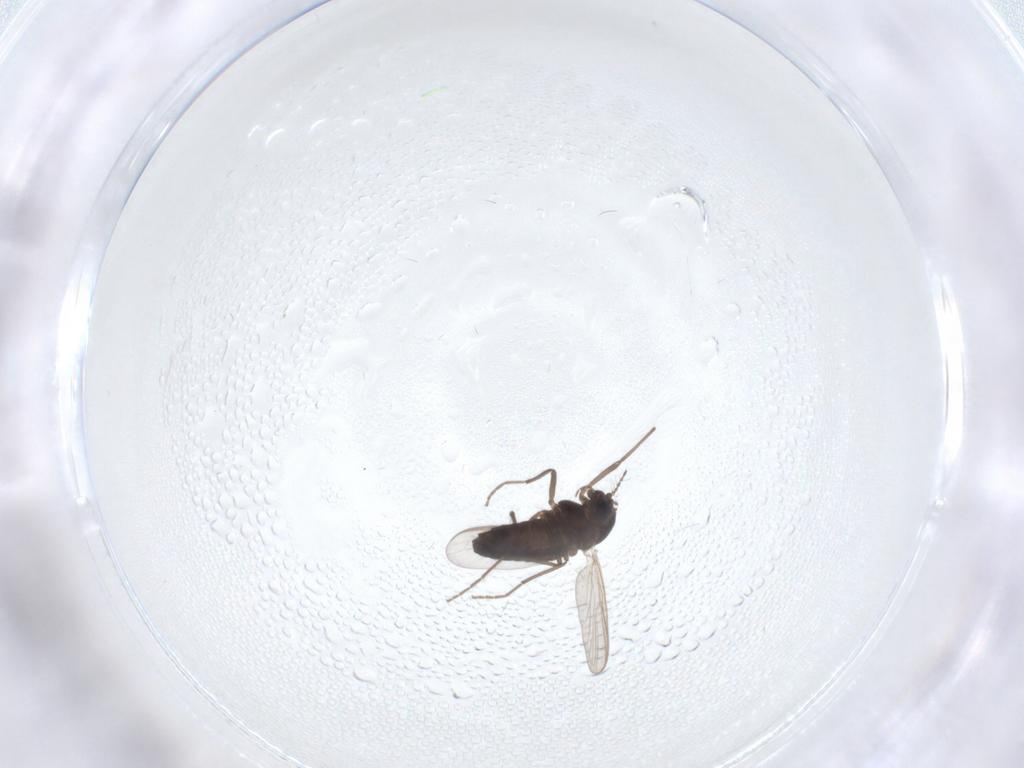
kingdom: Animalia
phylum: Arthropoda
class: Insecta
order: Diptera
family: Chironomidae
